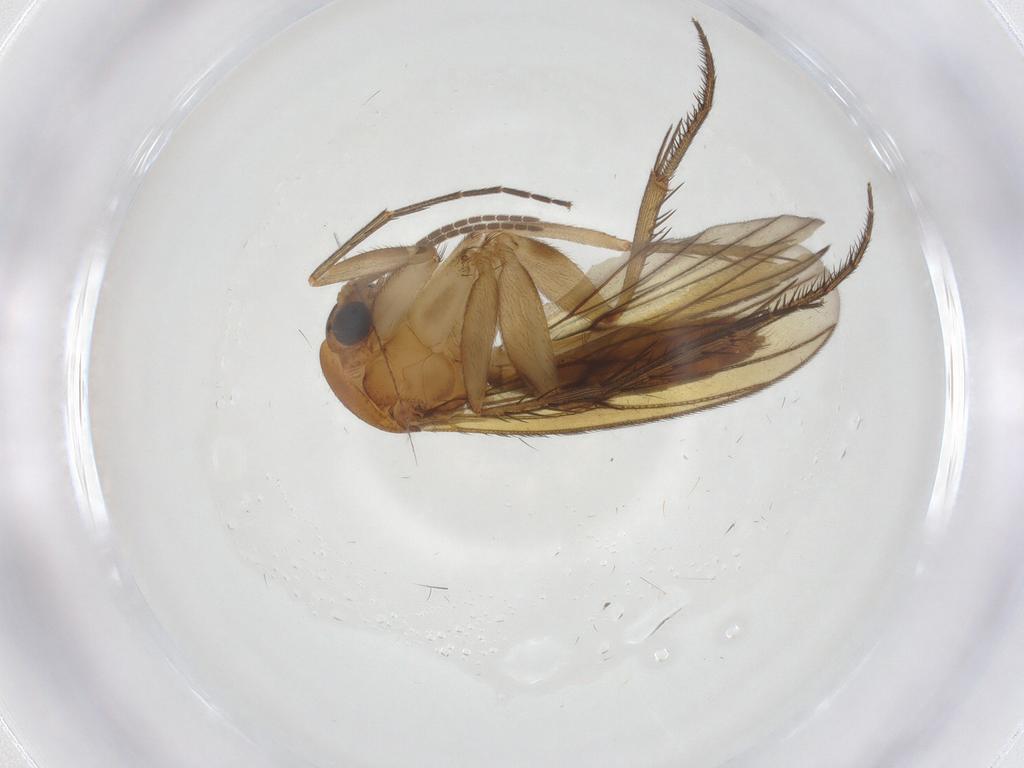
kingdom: Animalia
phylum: Arthropoda
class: Insecta
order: Diptera
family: Mycetophilidae
